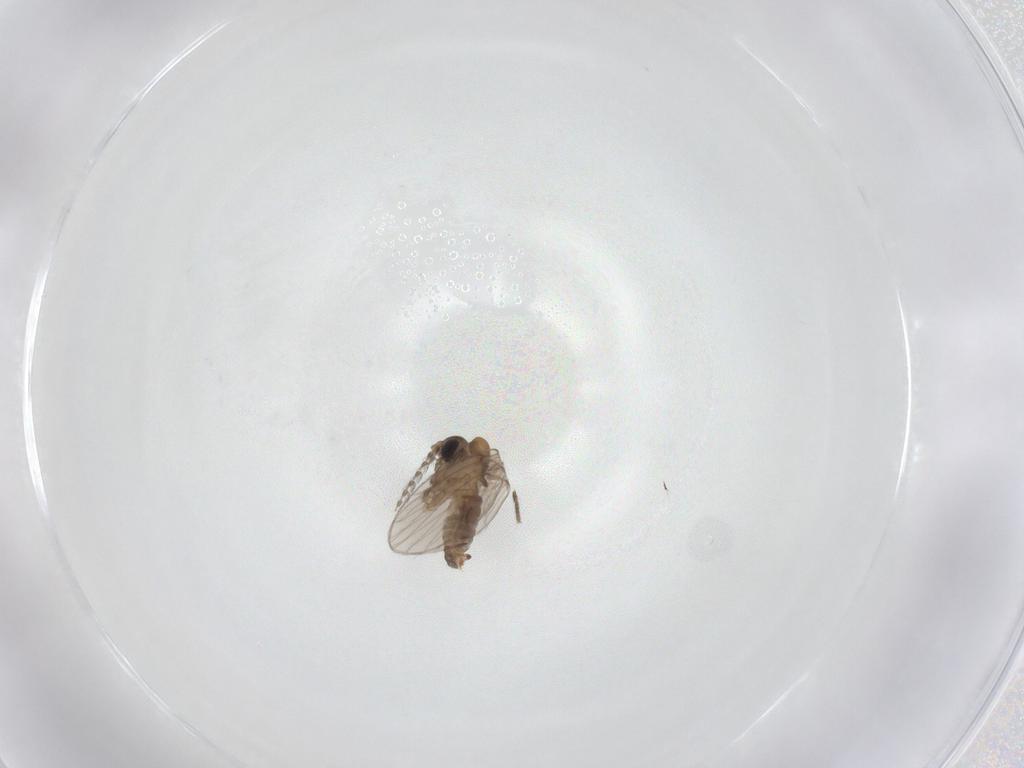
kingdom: Animalia
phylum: Arthropoda
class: Insecta
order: Diptera
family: Psychodidae
